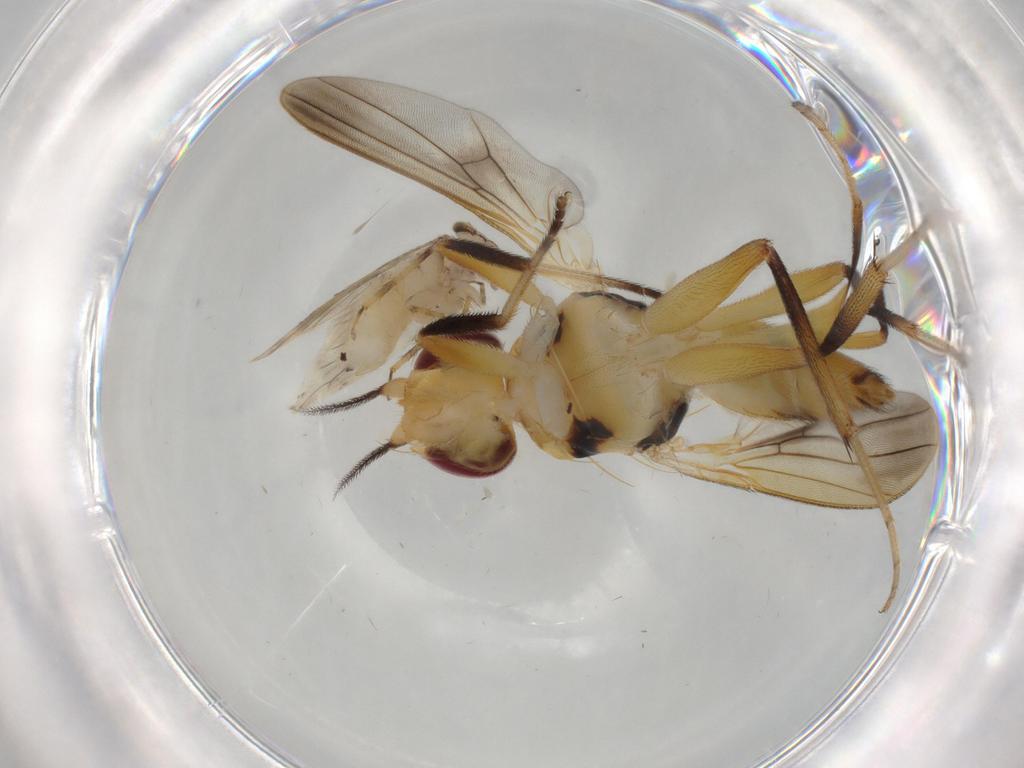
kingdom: Animalia
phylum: Arthropoda
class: Insecta
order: Diptera
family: Clusiidae
